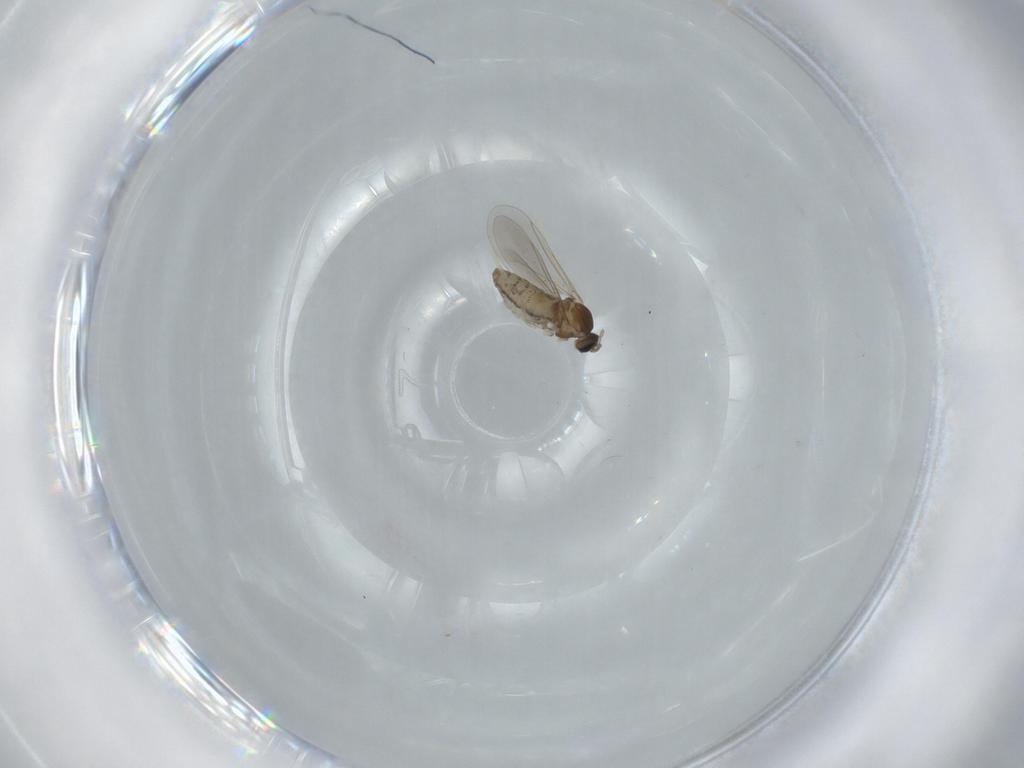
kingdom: Animalia
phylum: Arthropoda
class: Insecta
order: Diptera
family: Cecidomyiidae
